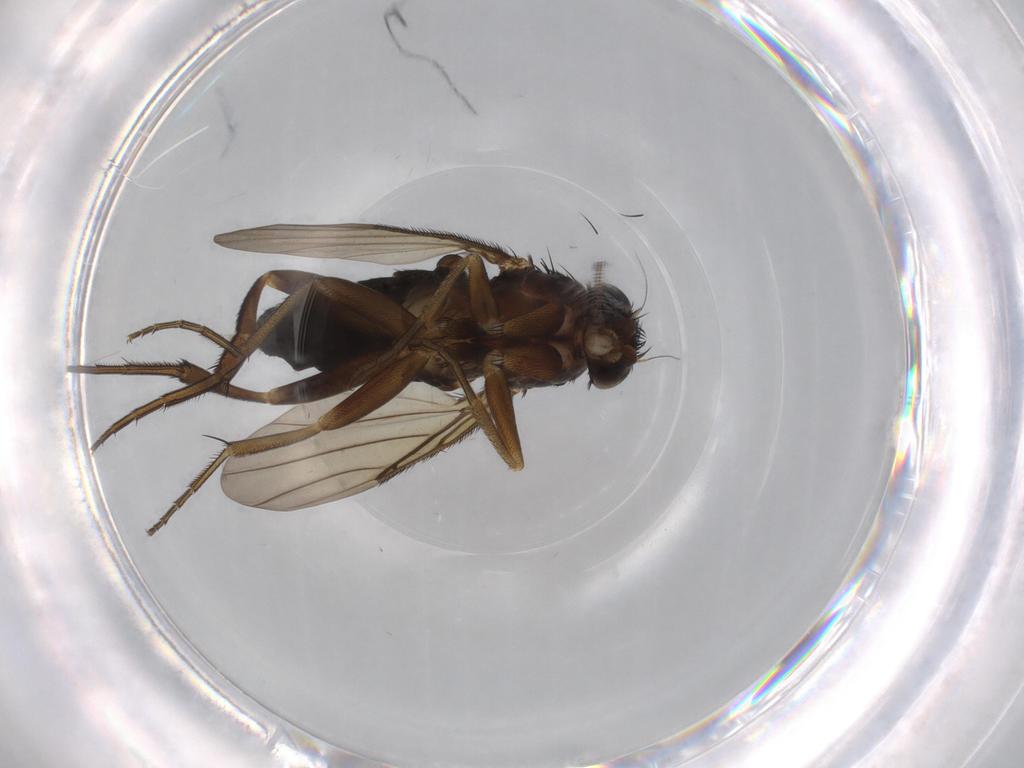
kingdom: Animalia
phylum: Arthropoda
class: Insecta
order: Diptera
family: Phoridae
